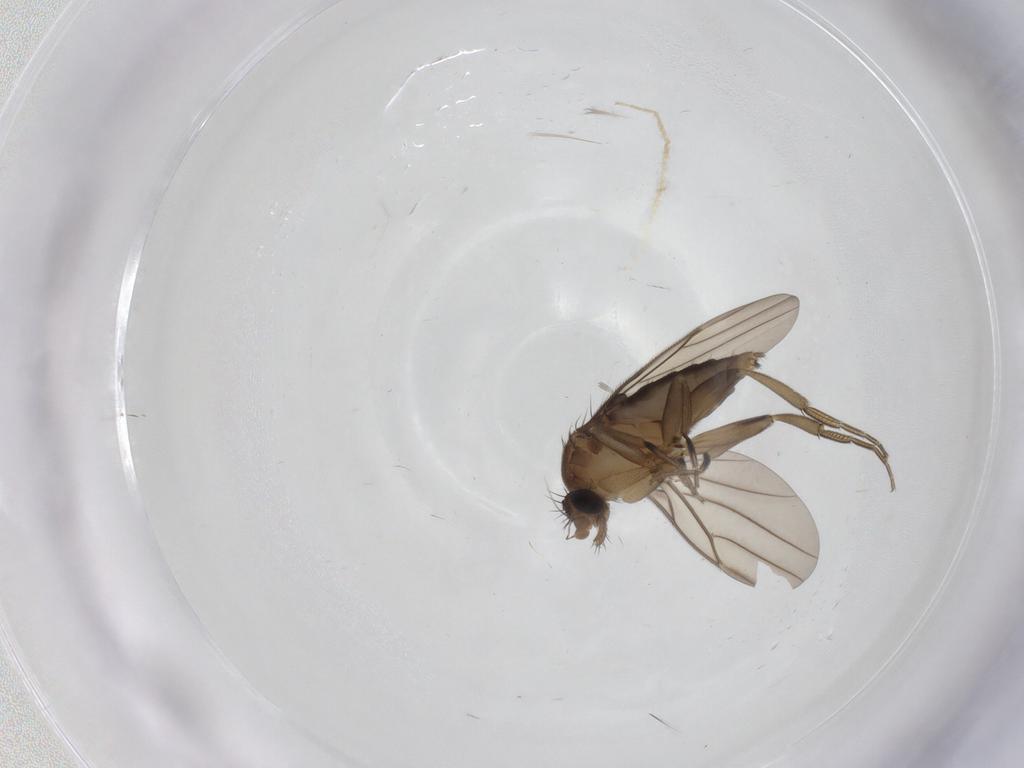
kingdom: Animalia
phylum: Arthropoda
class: Insecta
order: Diptera
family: Phoridae
